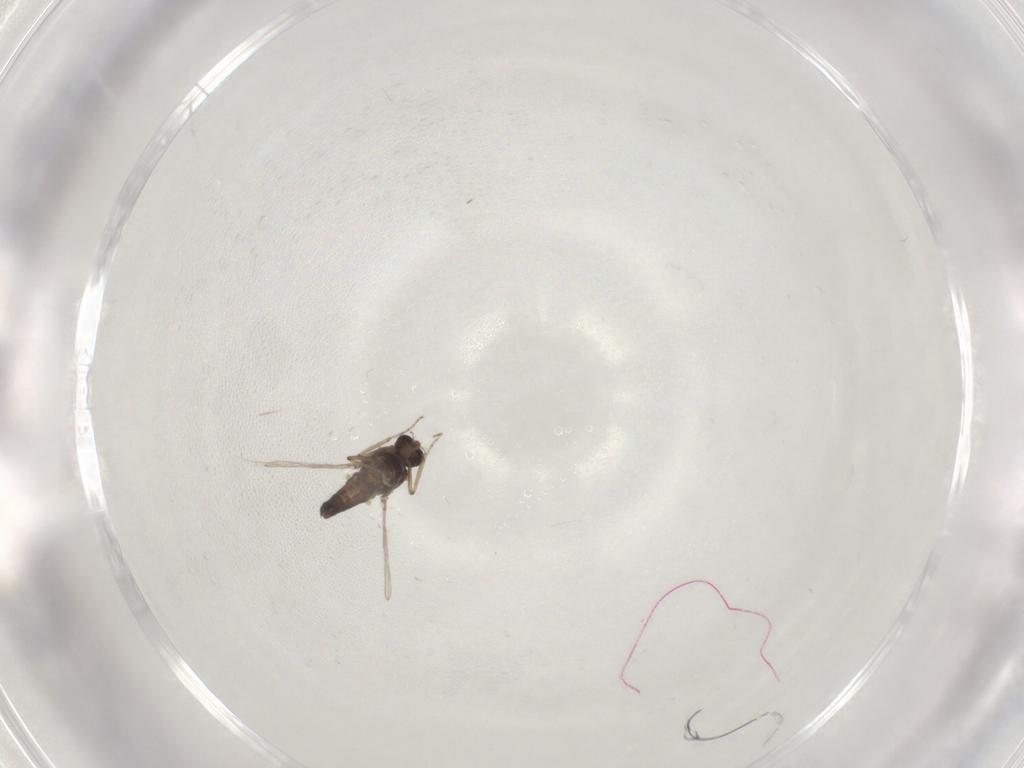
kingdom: Animalia
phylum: Arthropoda
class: Insecta
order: Diptera
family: Ceratopogonidae
